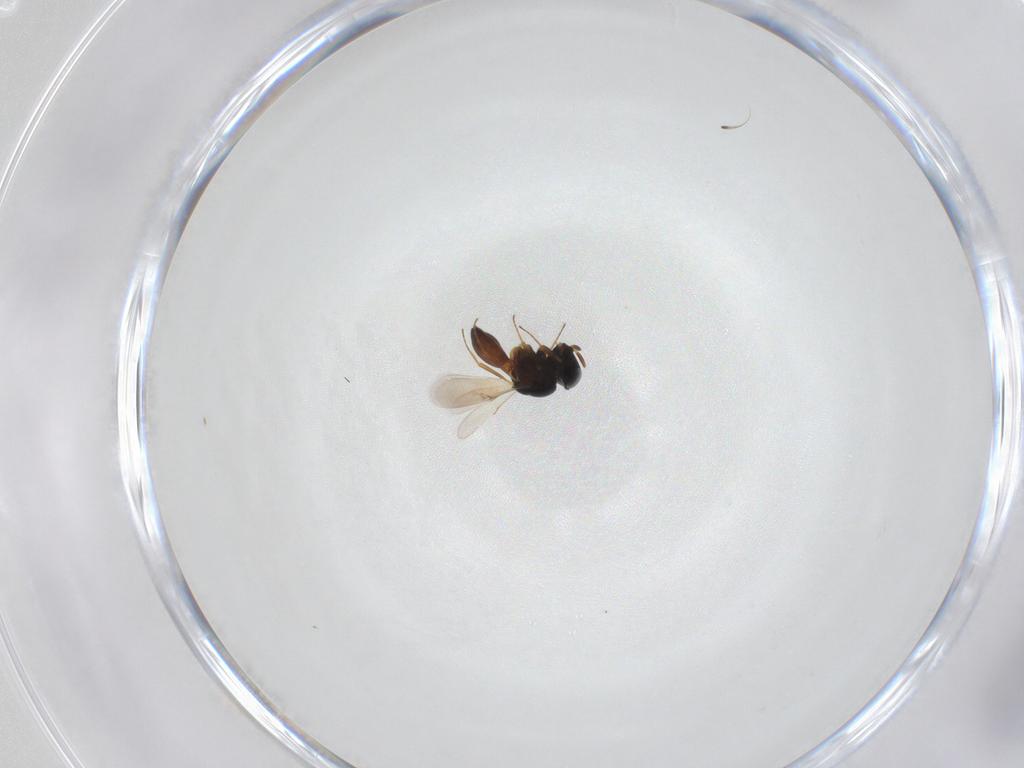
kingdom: Animalia
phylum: Arthropoda
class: Insecta
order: Hymenoptera
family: Scelionidae
